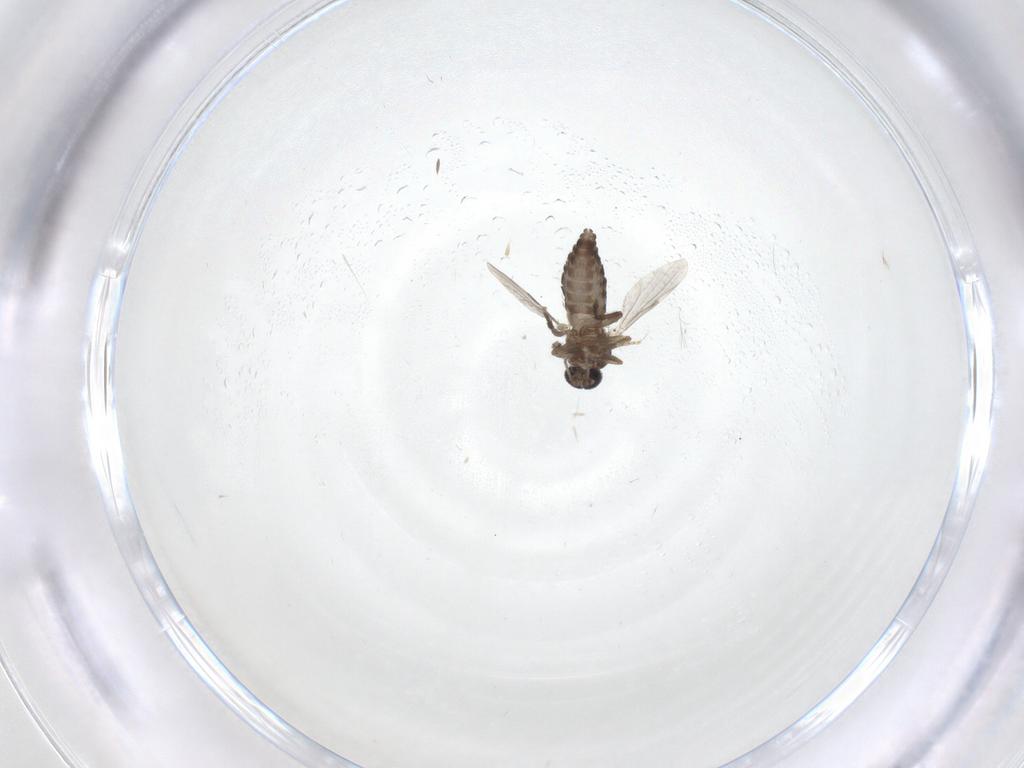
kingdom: Animalia
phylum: Arthropoda
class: Insecta
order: Diptera
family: Ceratopogonidae
